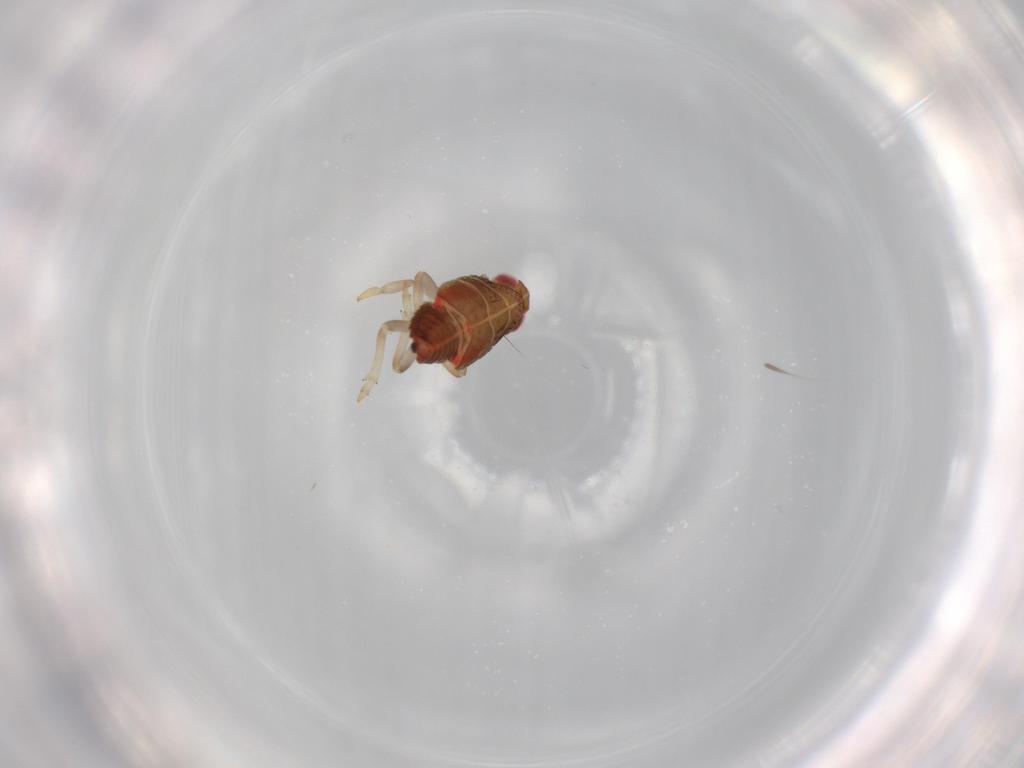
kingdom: Animalia
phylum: Arthropoda
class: Insecta
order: Hemiptera
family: Issidae
